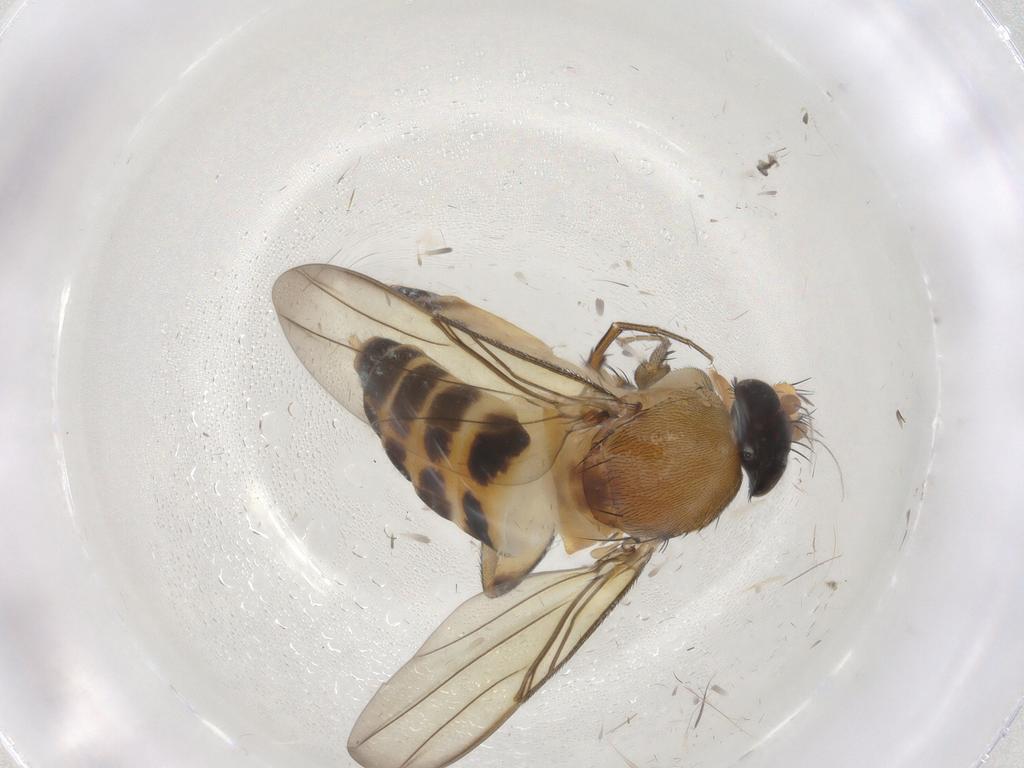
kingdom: Animalia
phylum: Arthropoda
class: Insecta
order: Diptera
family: Phoridae
